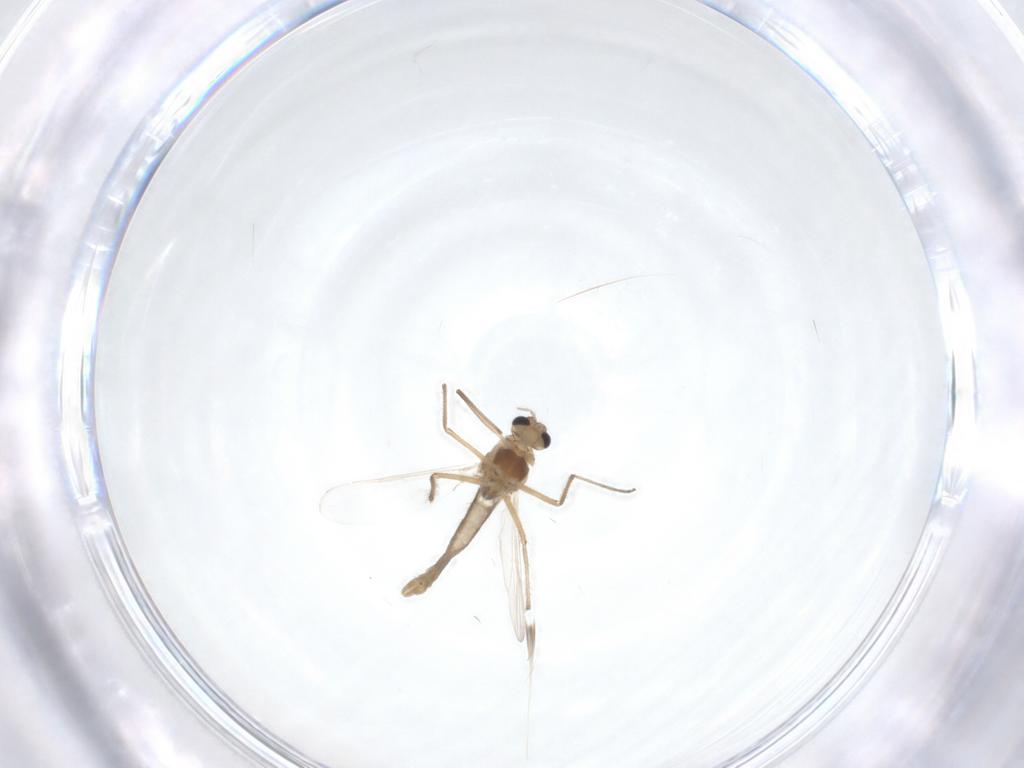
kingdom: Animalia
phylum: Arthropoda
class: Insecta
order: Diptera
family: Chironomidae
